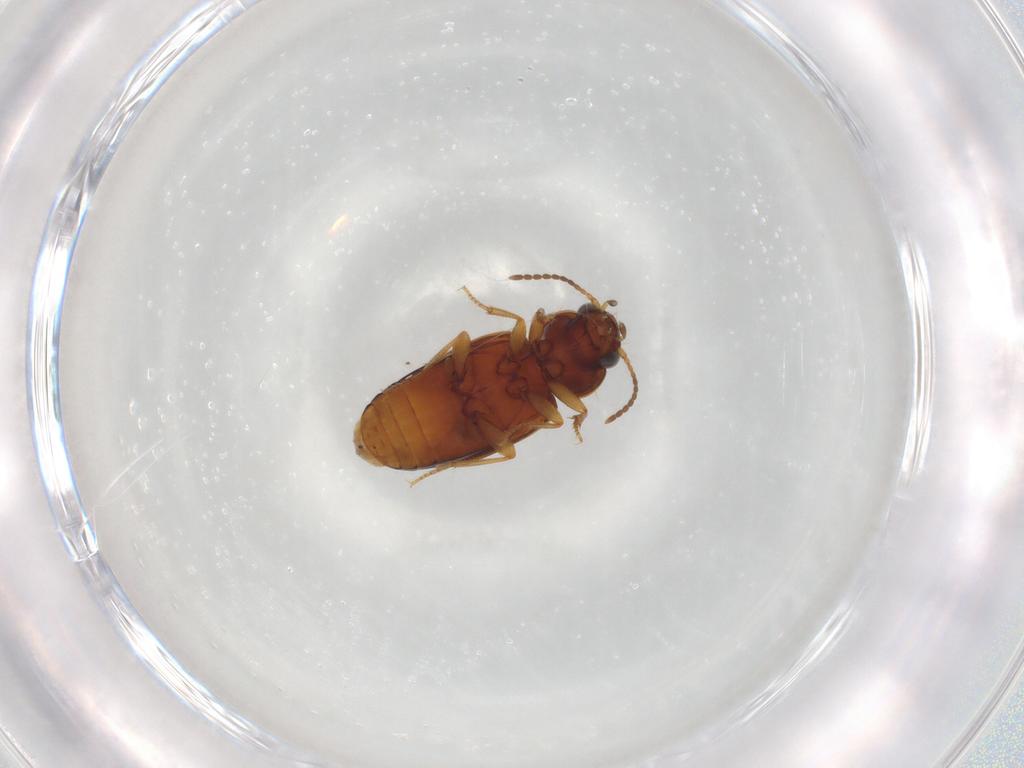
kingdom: Animalia
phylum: Arthropoda
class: Insecta
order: Coleoptera
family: Carabidae
